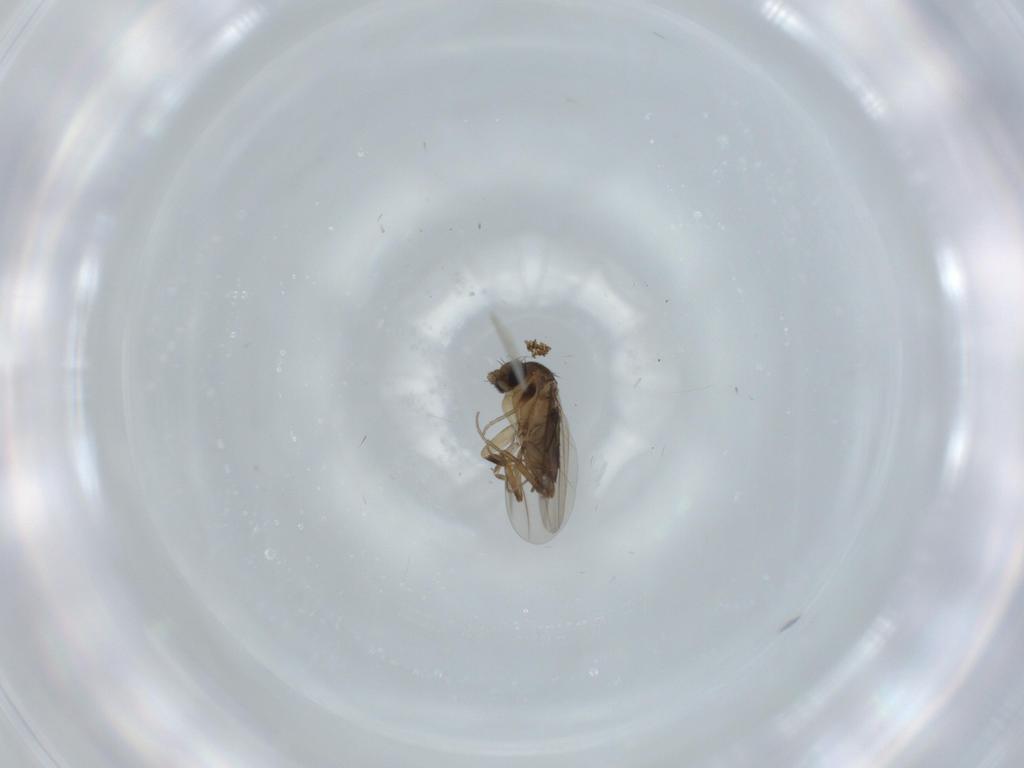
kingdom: Animalia
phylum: Arthropoda
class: Insecta
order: Diptera
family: Phoridae
